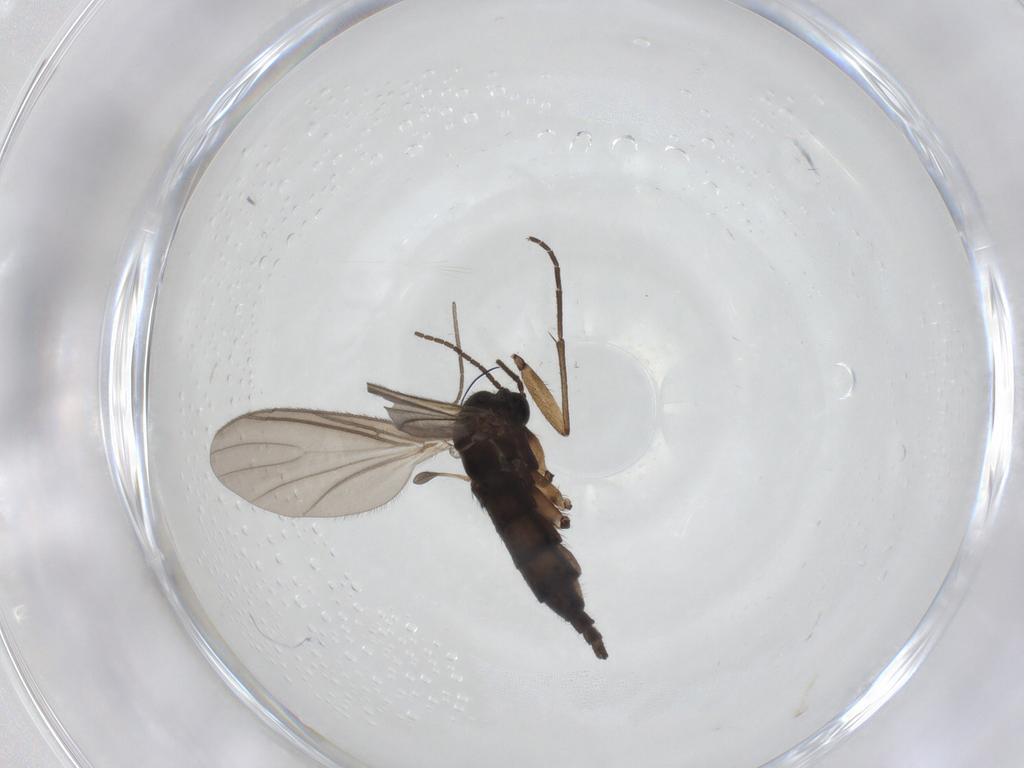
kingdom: Animalia
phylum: Arthropoda
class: Insecta
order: Diptera
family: Sciaridae
